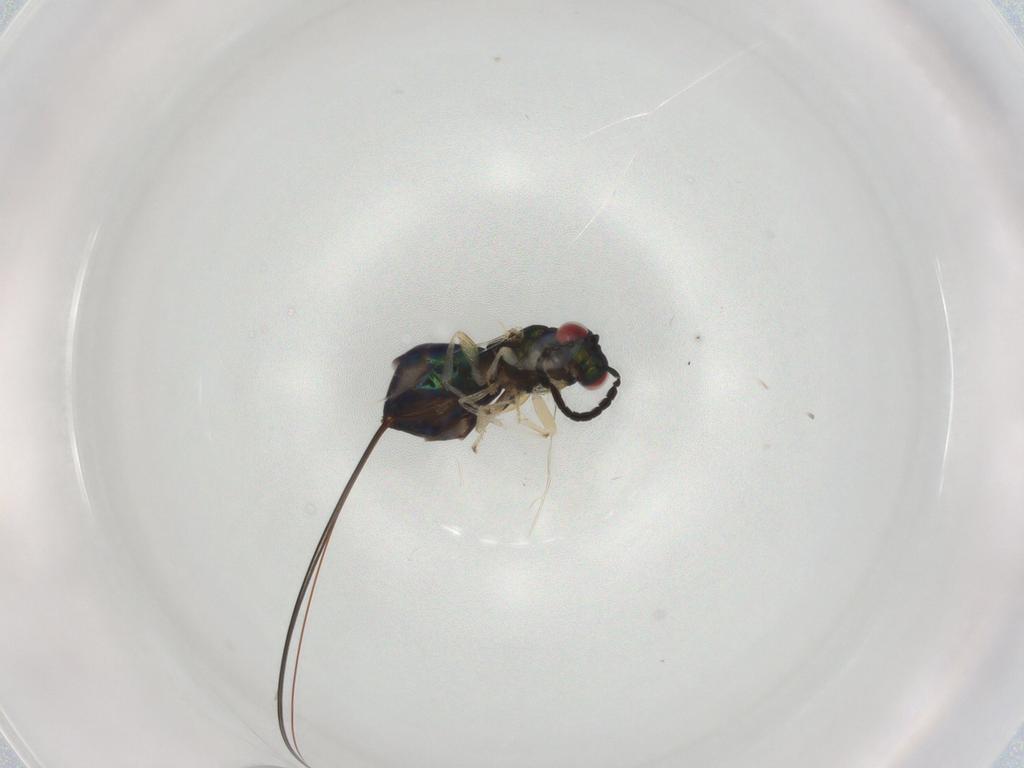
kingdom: Animalia
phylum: Arthropoda
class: Insecta
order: Hymenoptera
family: Agaonidae
